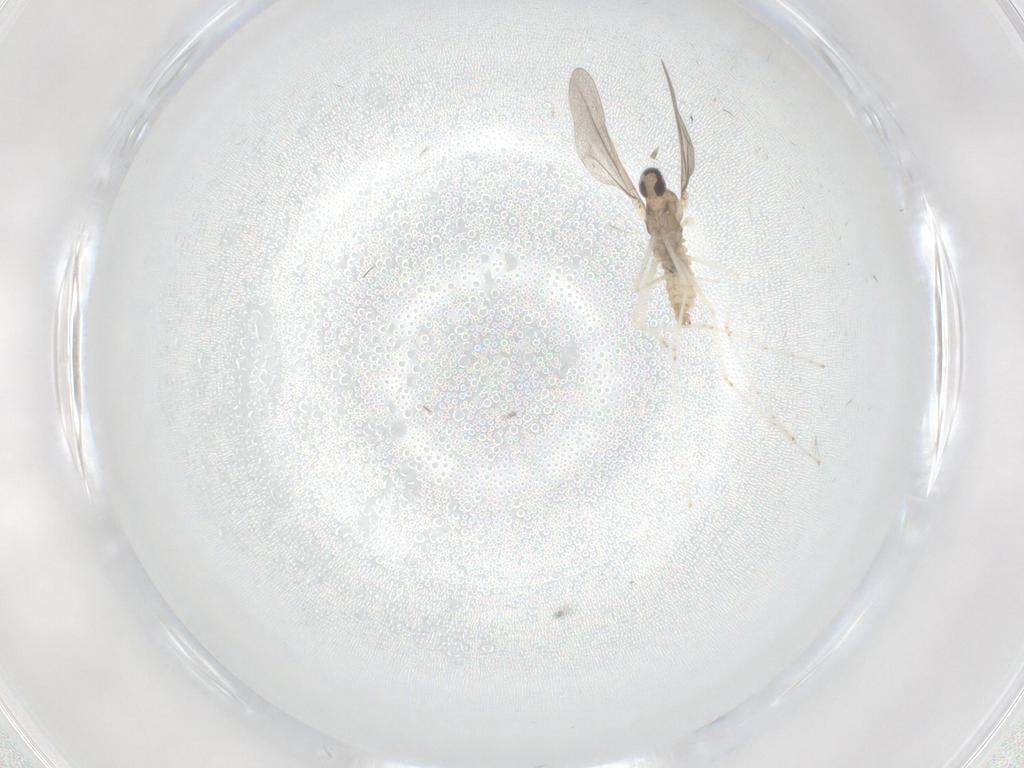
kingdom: Animalia
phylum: Arthropoda
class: Insecta
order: Diptera
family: Cecidomyiidae
